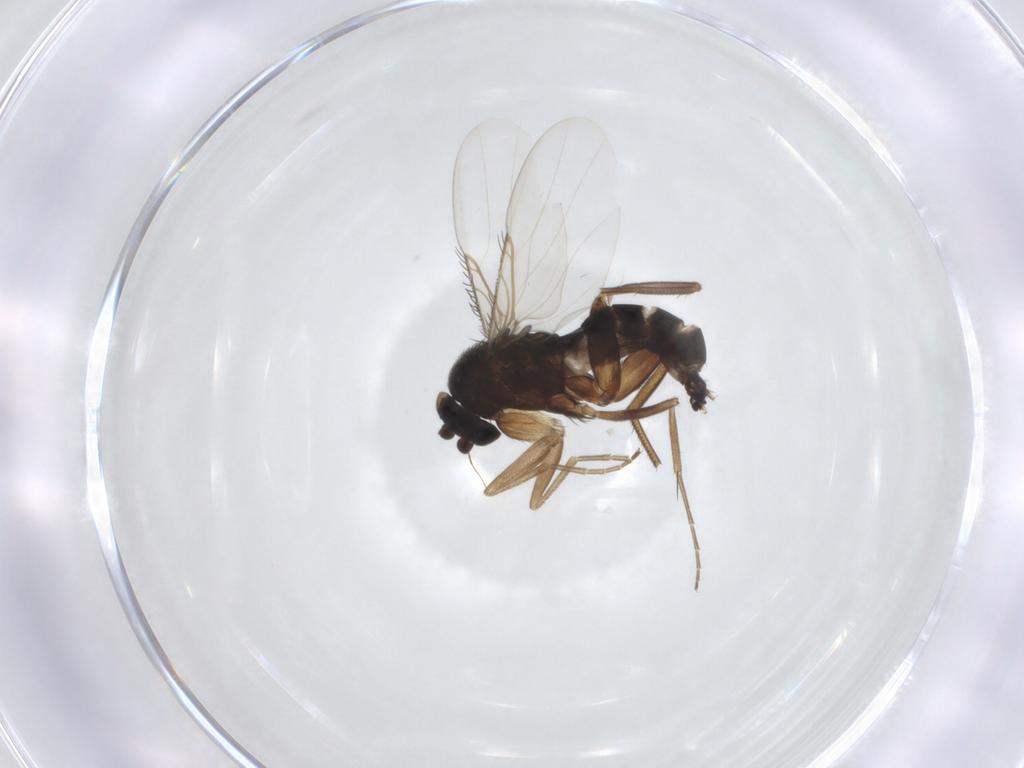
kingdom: Animalia
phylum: Arthropoda
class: Insecta
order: Diptera
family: Phoridae
